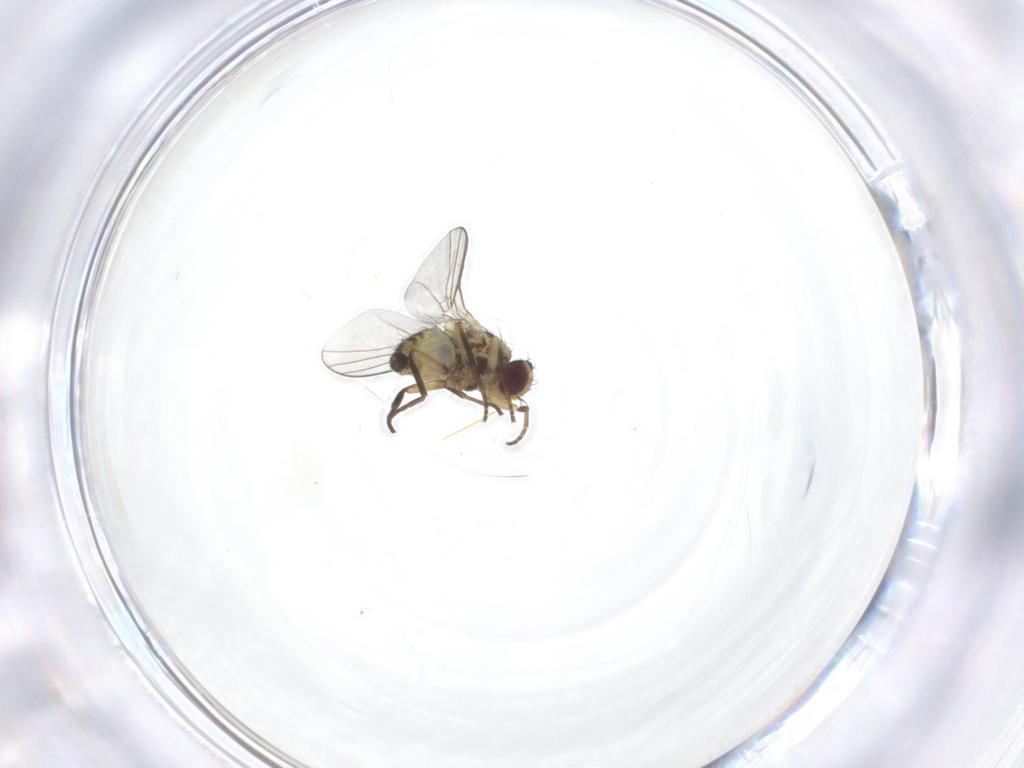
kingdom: Animalia
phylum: Arthropoda
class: Insecta
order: Diptera
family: Agromyzidae
